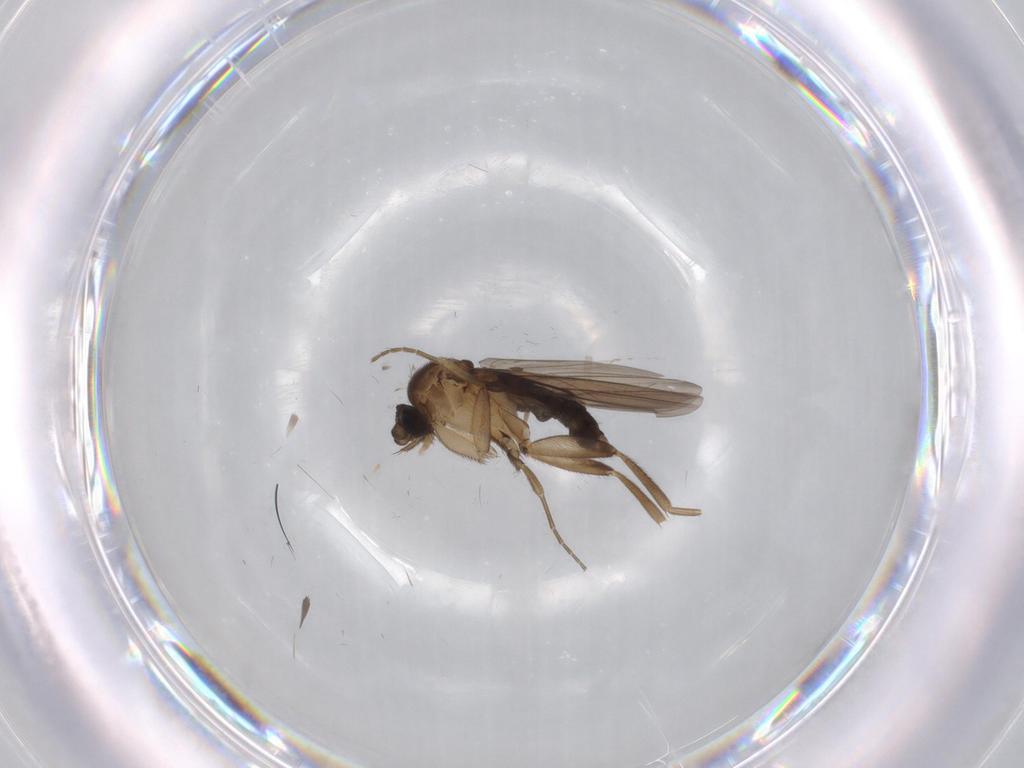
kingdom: Animalia
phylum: Arthropoda
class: Insecta
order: Diptera
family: Phoridae
